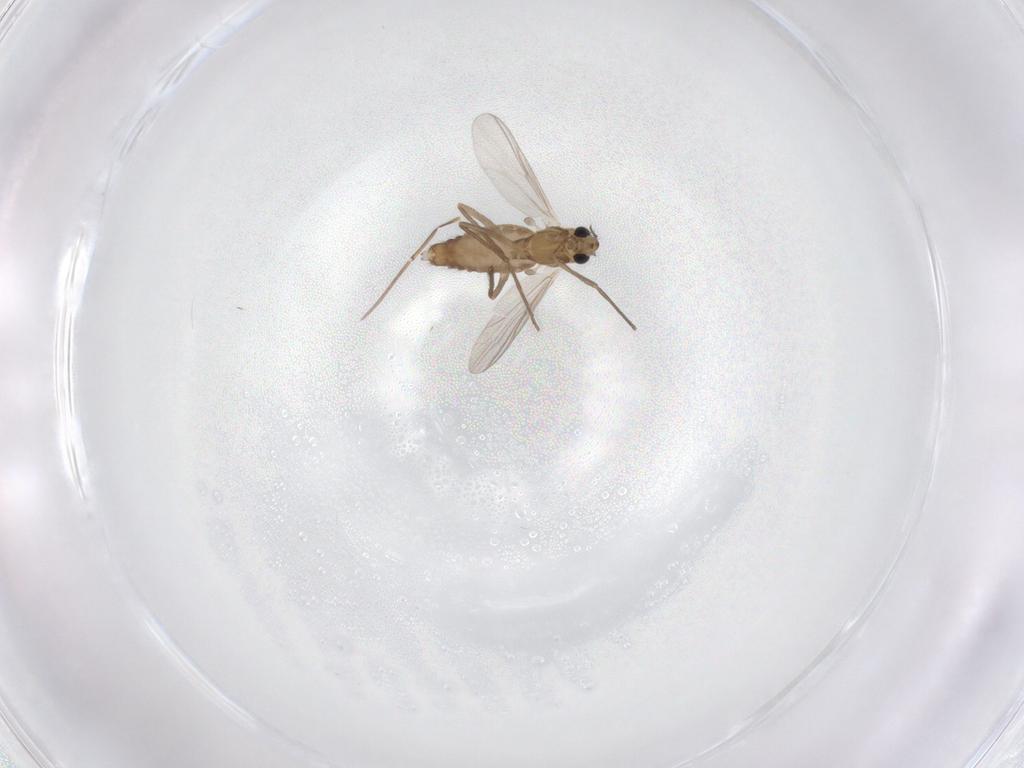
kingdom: Animalia
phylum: Arthropoda
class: Insecta
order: Diptera
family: Chironomidae
